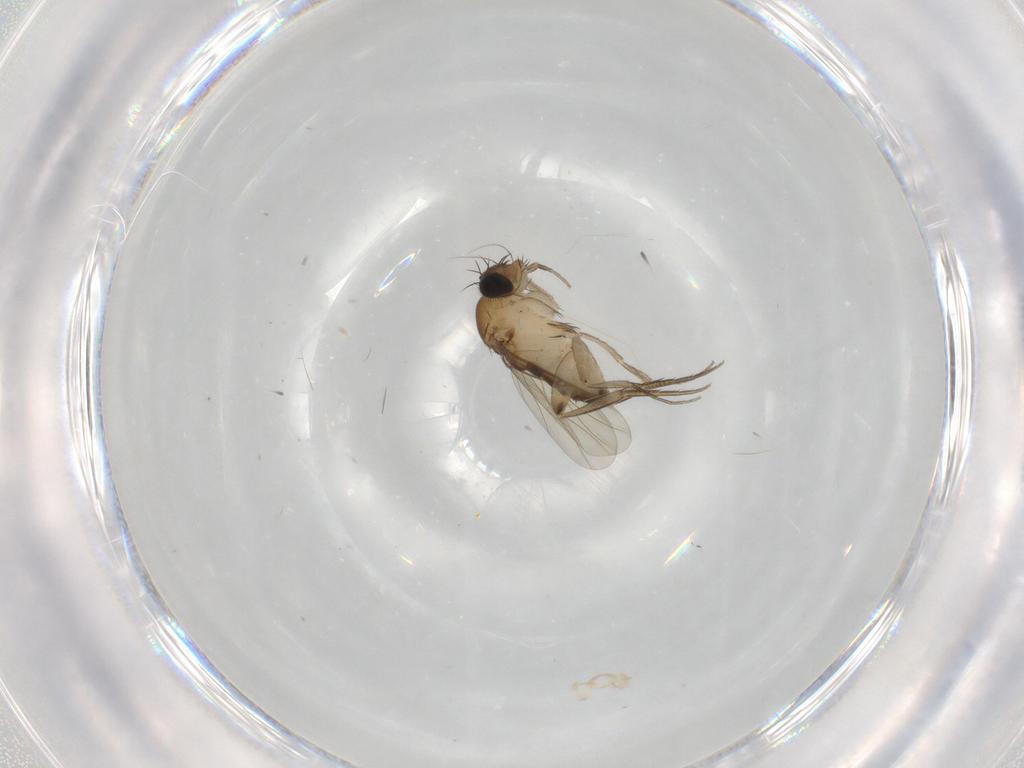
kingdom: Animalia
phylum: Arthropoda
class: Insecta
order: Diptera
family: Phoridae
